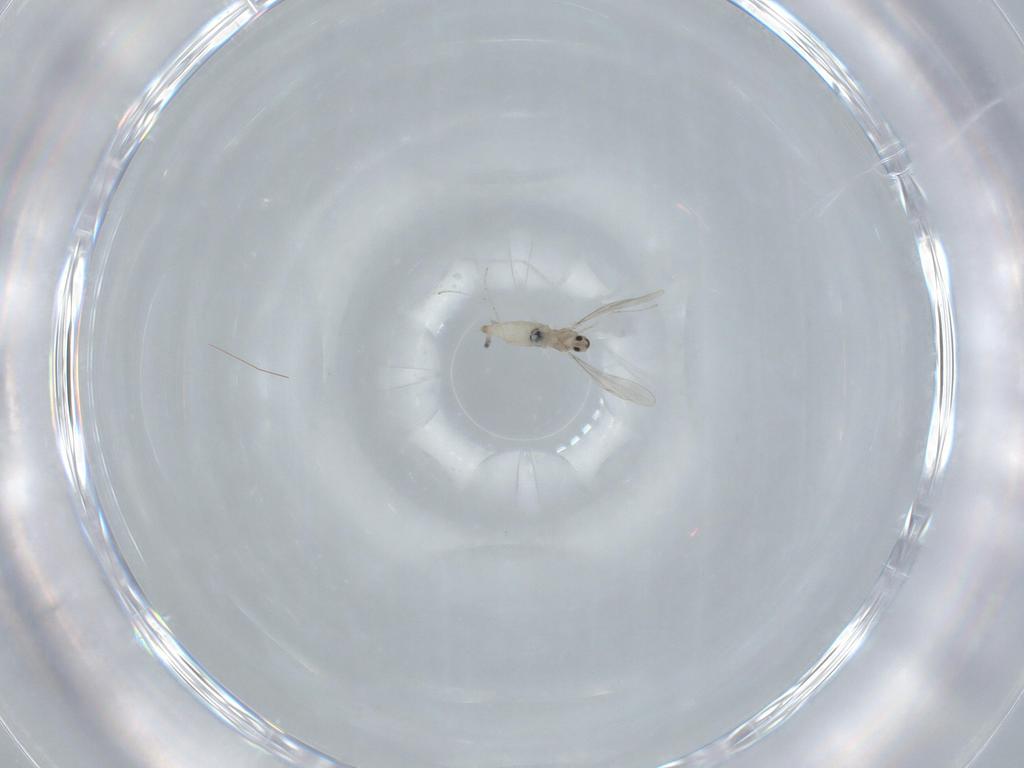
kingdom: Animalia
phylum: Arthropoda
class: Insecta
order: Diptera
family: Cecidomyiidae
